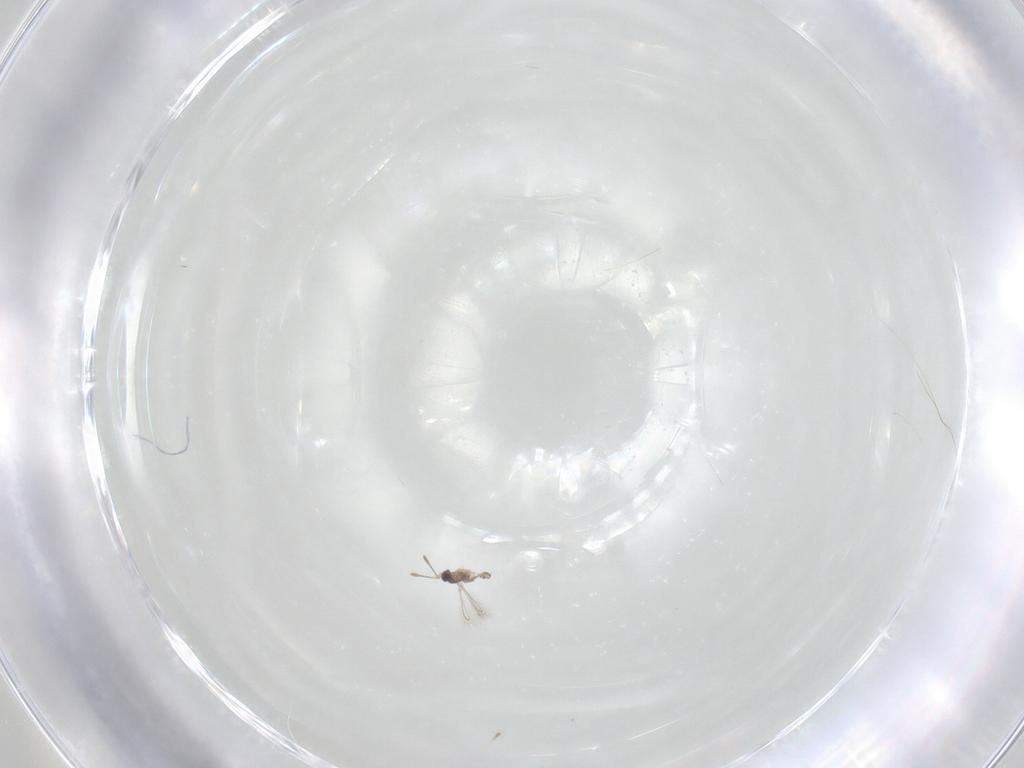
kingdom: Animalia
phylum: Arthropoda
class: Insecta
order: Hymenoptera
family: Mymaridae
